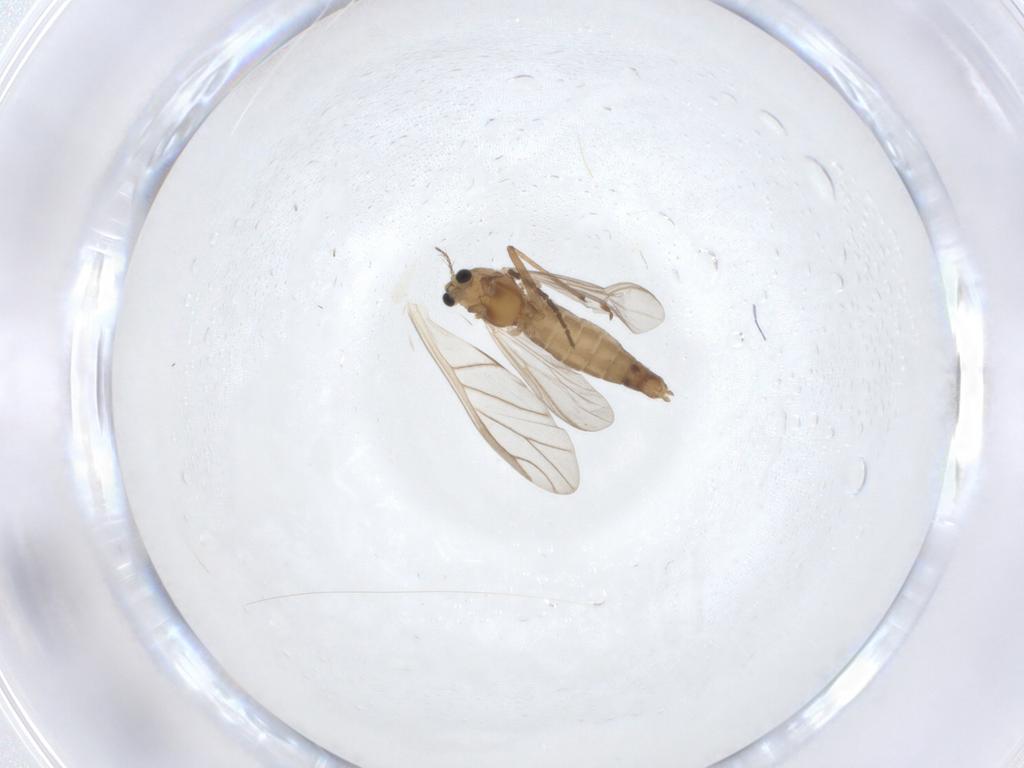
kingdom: Animalia
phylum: Arthropoda
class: Insecta
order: Diptera
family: Chironomidae
